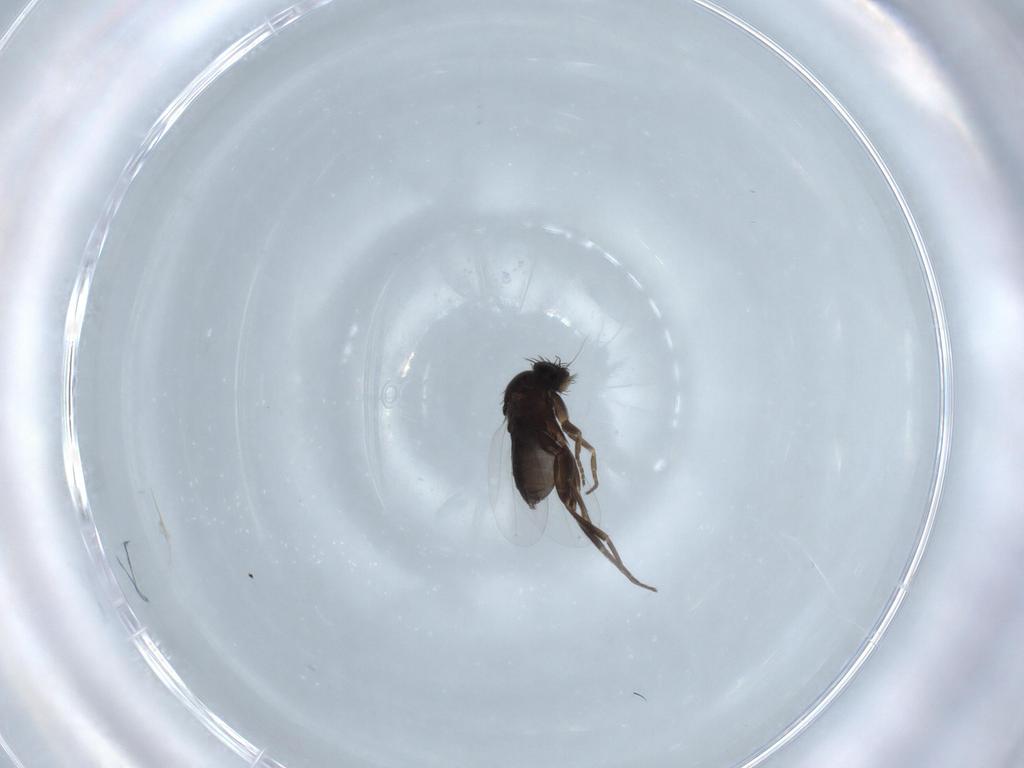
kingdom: Animalia
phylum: Arthropoda
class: Insecta
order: Diptera
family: Phoridae
